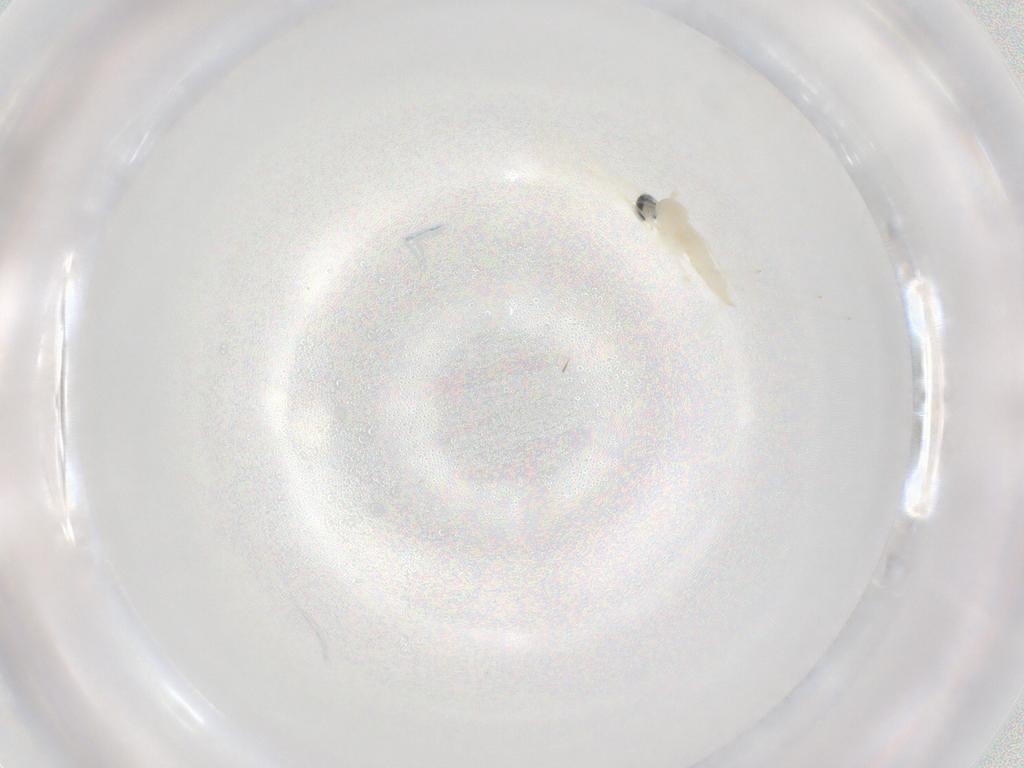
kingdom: Animalia
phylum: Arthropoda
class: Insecta
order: Diptera
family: Cecidomyiidae
